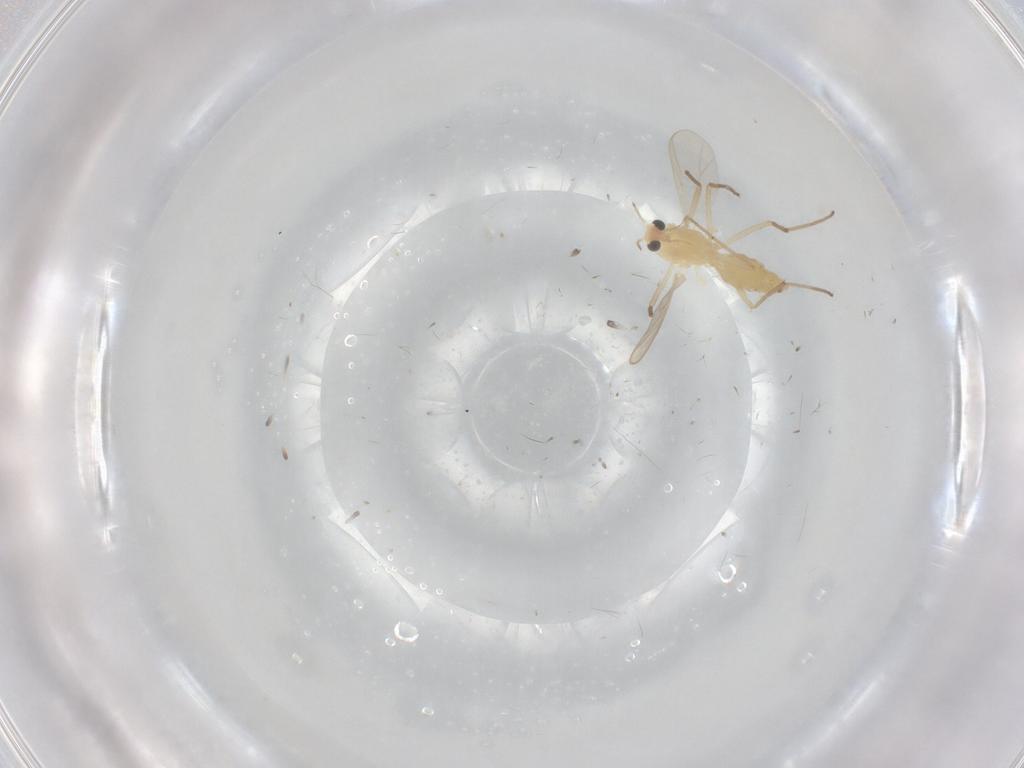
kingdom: Animalia
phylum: Arthropoda
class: Insecta
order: Diptera
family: Chironomidae
